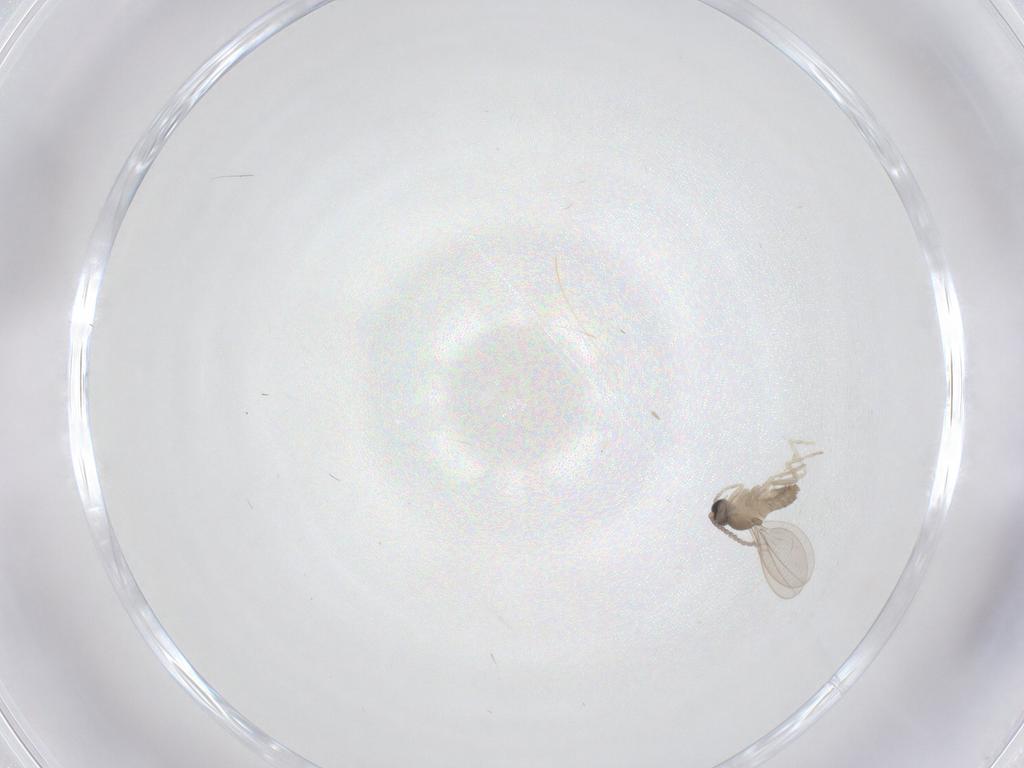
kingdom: Animalia
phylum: Arthropoda
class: Insecta
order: Diptera
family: Cecidomyiidae
